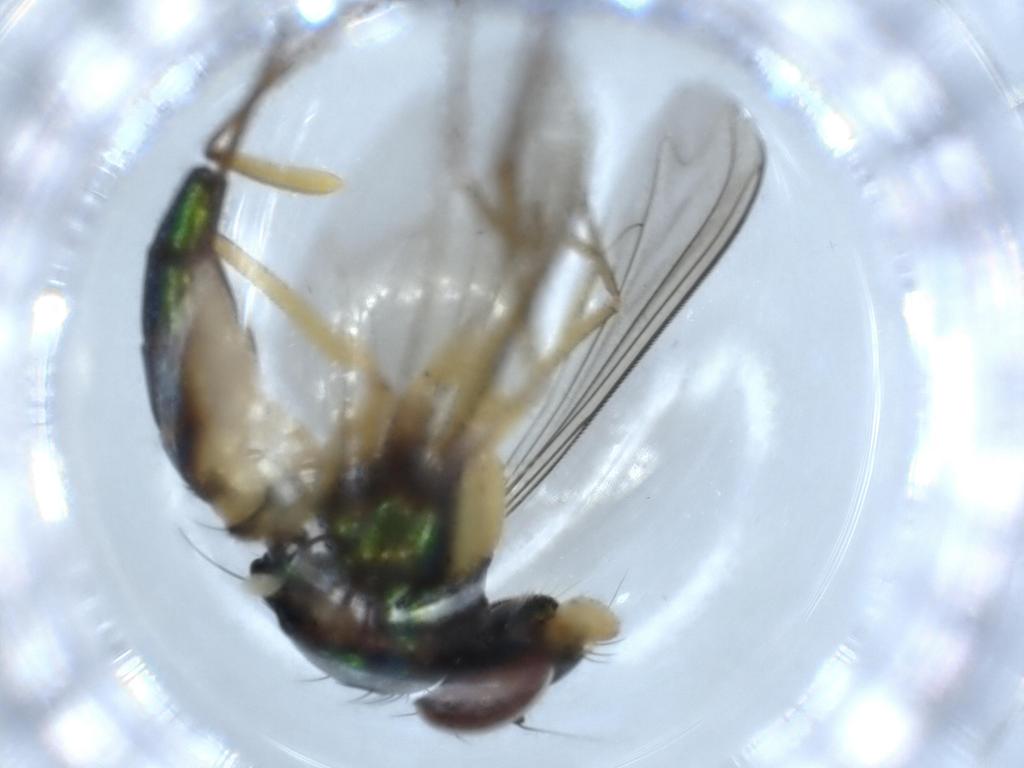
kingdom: Animalia
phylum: Arthropoda
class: Insecta
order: Diptera
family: Dolichopodidae
